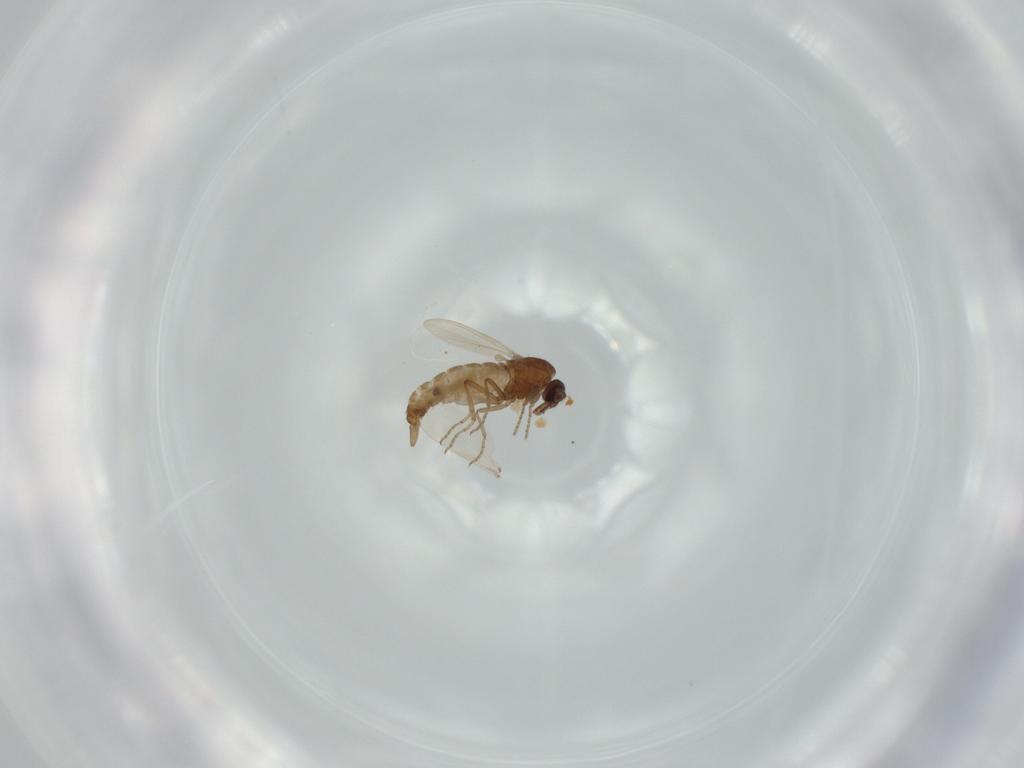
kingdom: Animalia
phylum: Arthropoda
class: Insecta
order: Diptera
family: Ceratopogonidae
